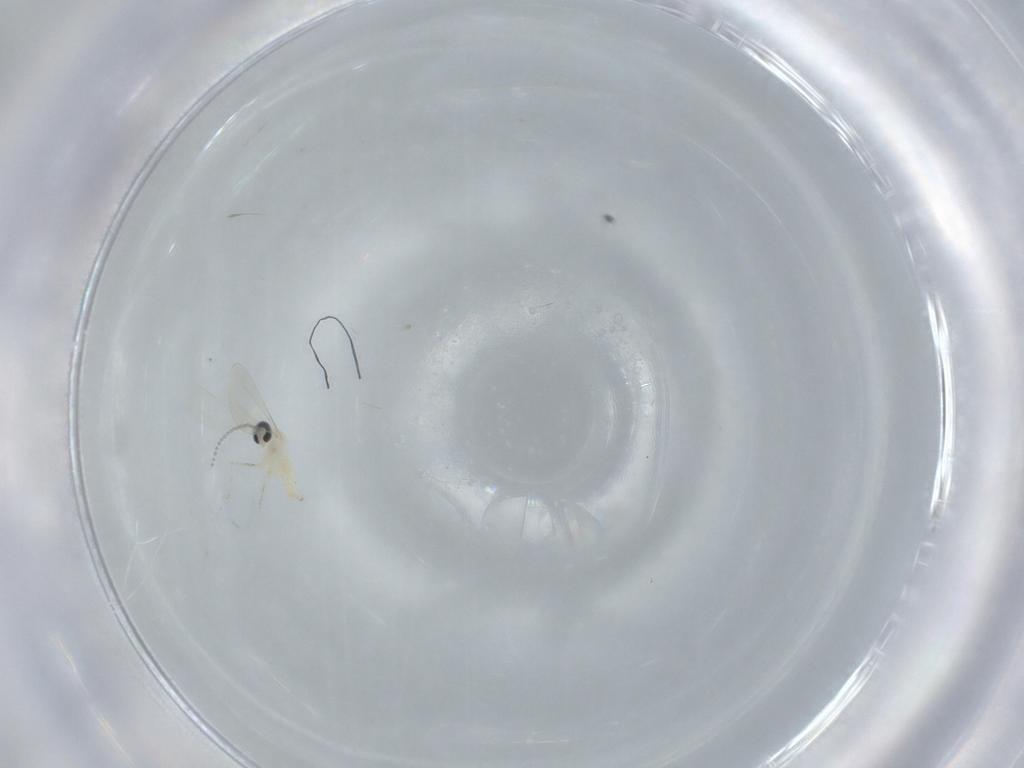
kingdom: Animalia
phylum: Arthropoda
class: Insecta
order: Diptera
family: Cecidomyiidae
